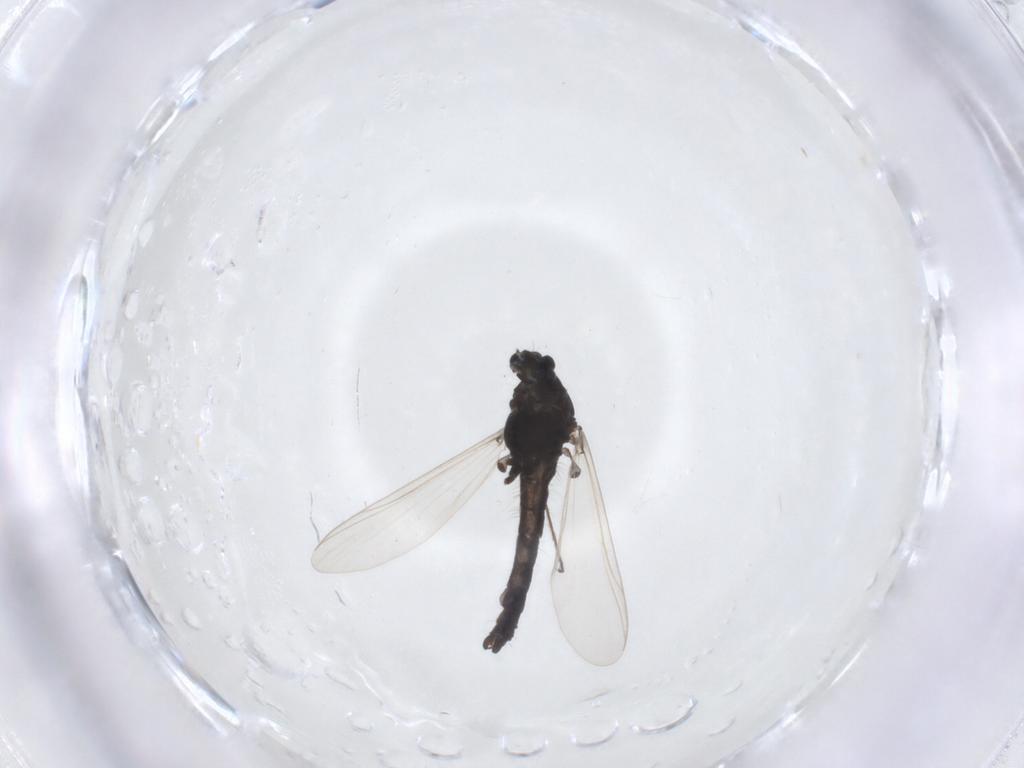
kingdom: Animalia
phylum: Arthropoda
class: Insecta
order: Diptera
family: Chironomidae
